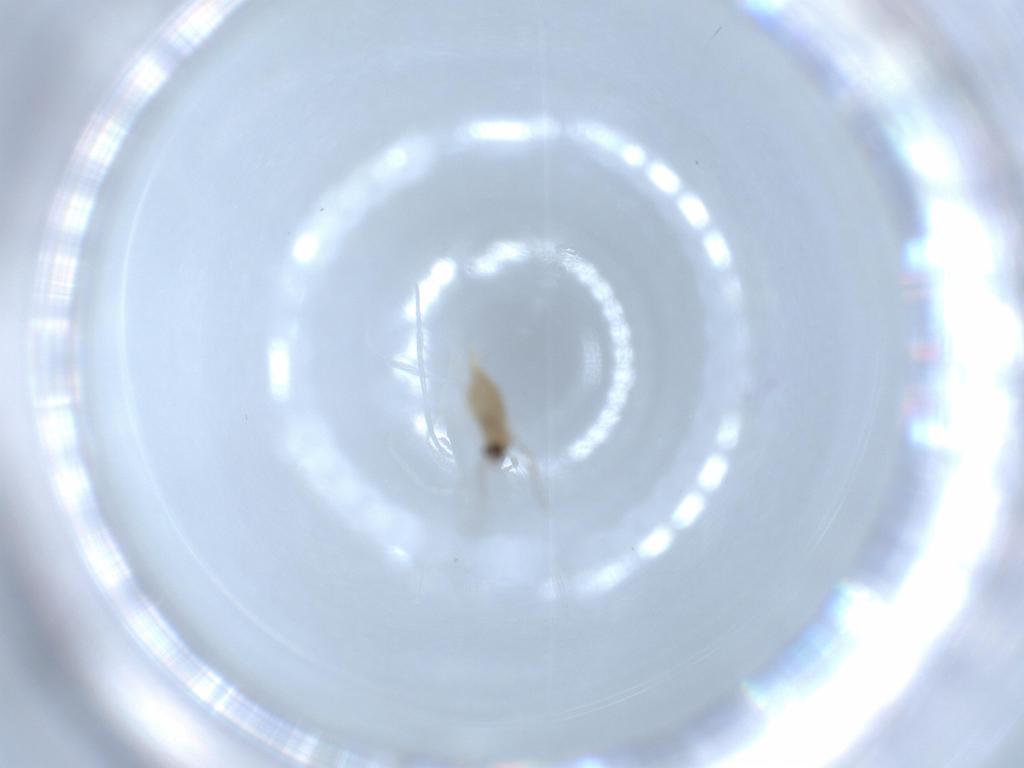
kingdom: Animalia
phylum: Arthropoda
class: Insecta
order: Diptera
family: Cecidomyiidae
